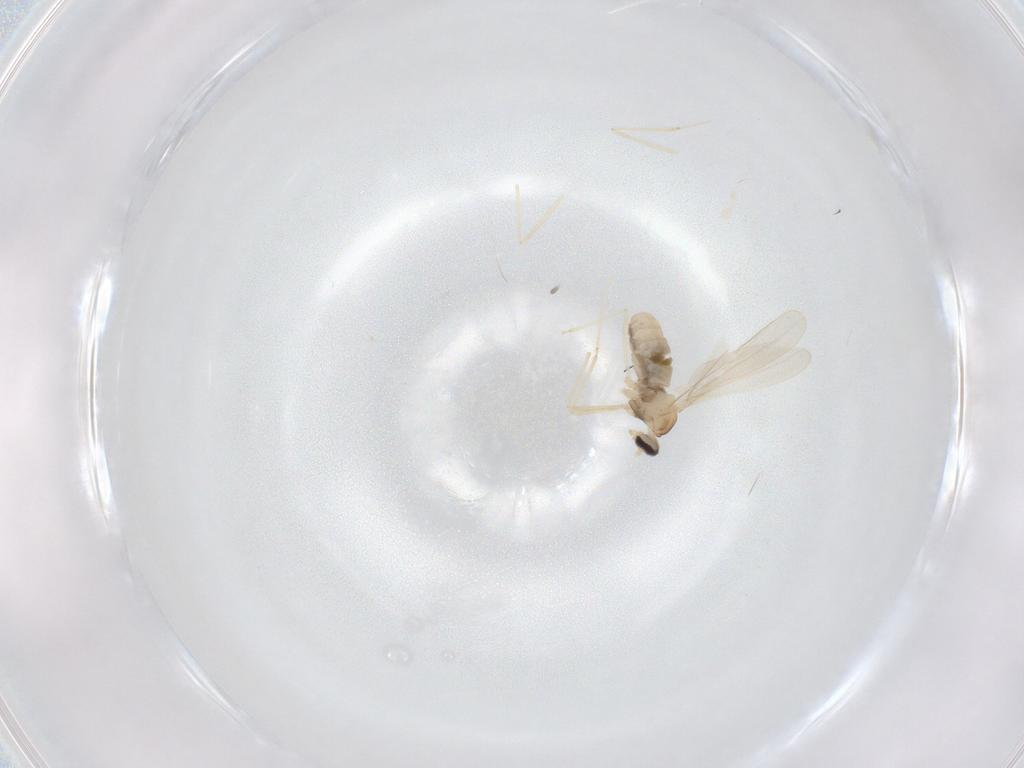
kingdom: Animalia
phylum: Arthropoda
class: Insecta
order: Diptera
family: Cecidomyiidae
